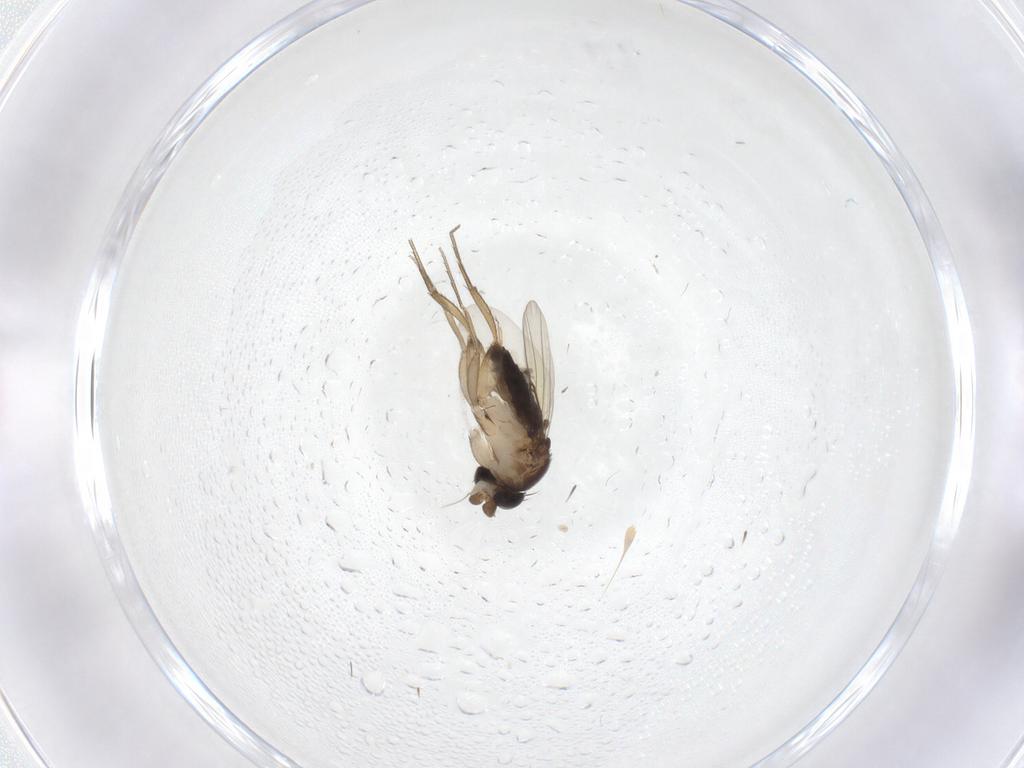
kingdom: Animalia
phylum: Arthropoda
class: Insecta
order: Diptera
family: Phoridae
